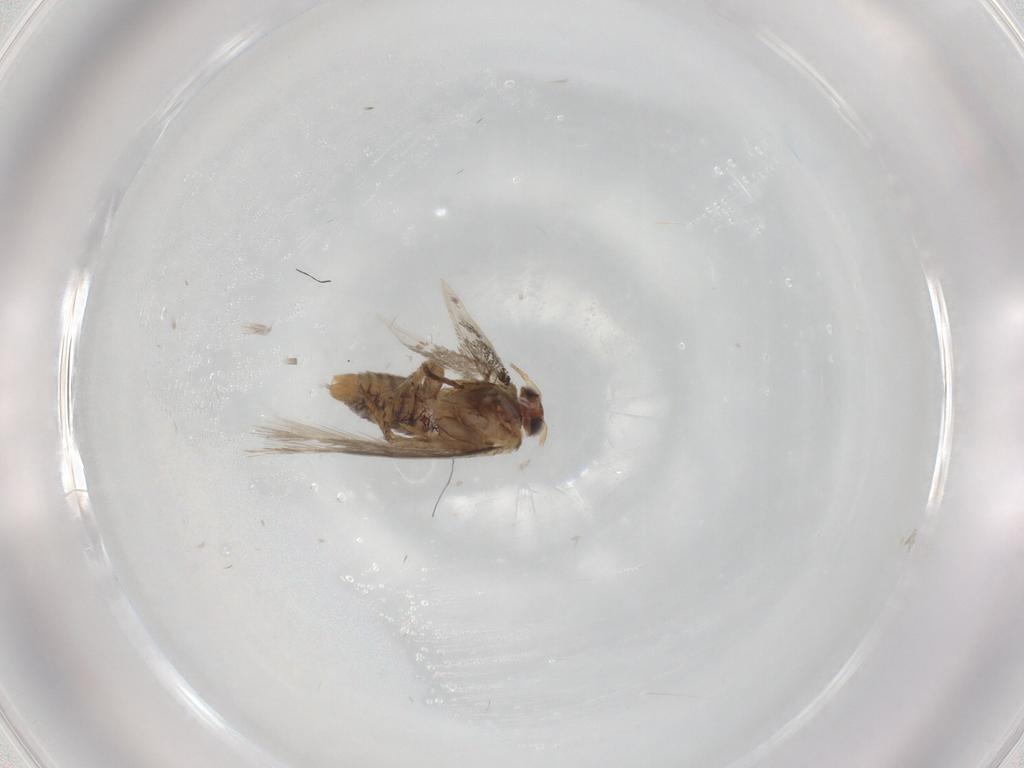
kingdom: Animalia
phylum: Arthropoda
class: Insecta
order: Lepidoptera
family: Nepticulidae
